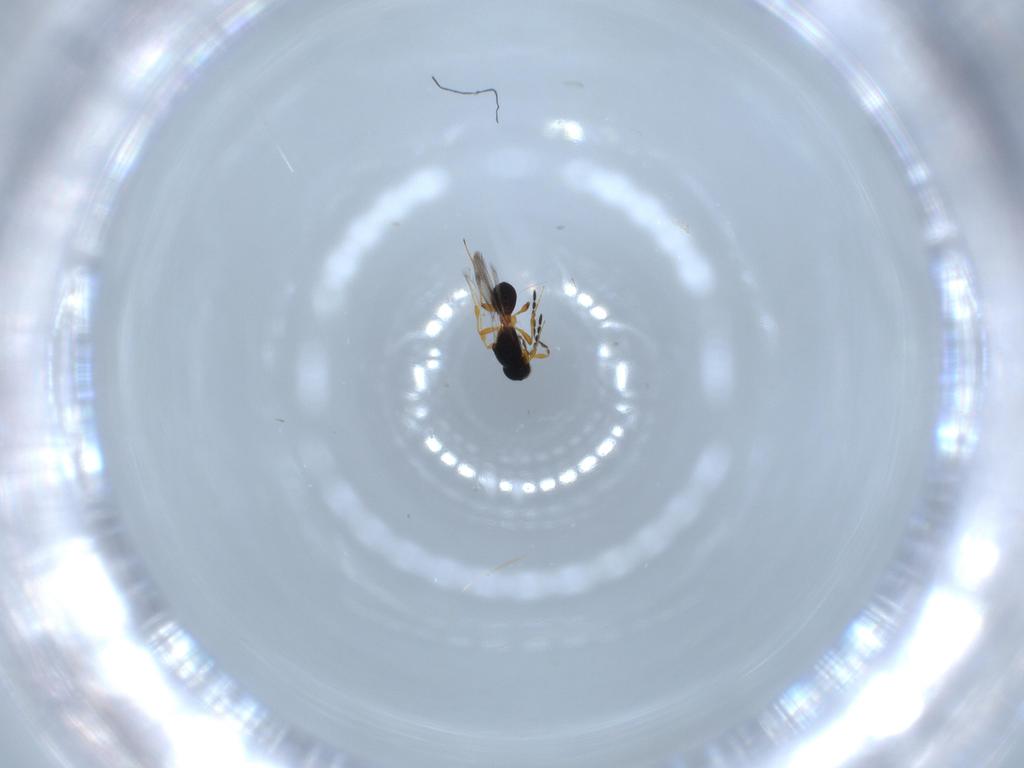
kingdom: Animalia
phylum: Arthropoda
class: Insecta
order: Hymenoptera
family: Platygastridae
